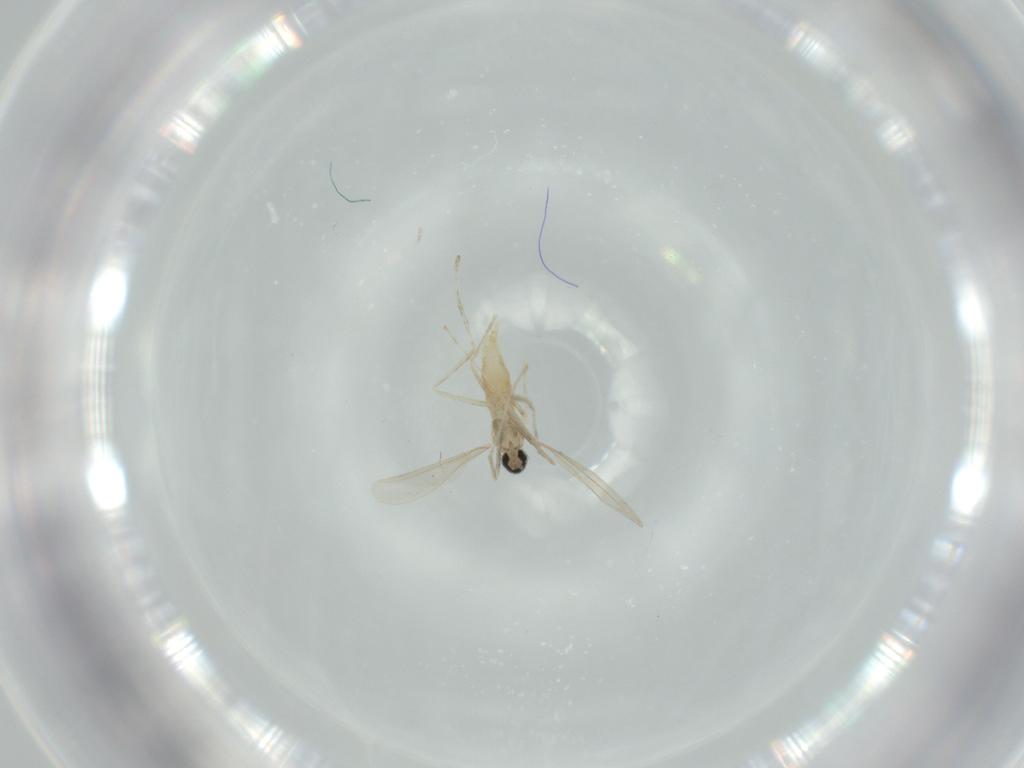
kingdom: Animalia
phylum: Arthropoda
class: Insecta
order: Diptera
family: Cecidomyiidae
